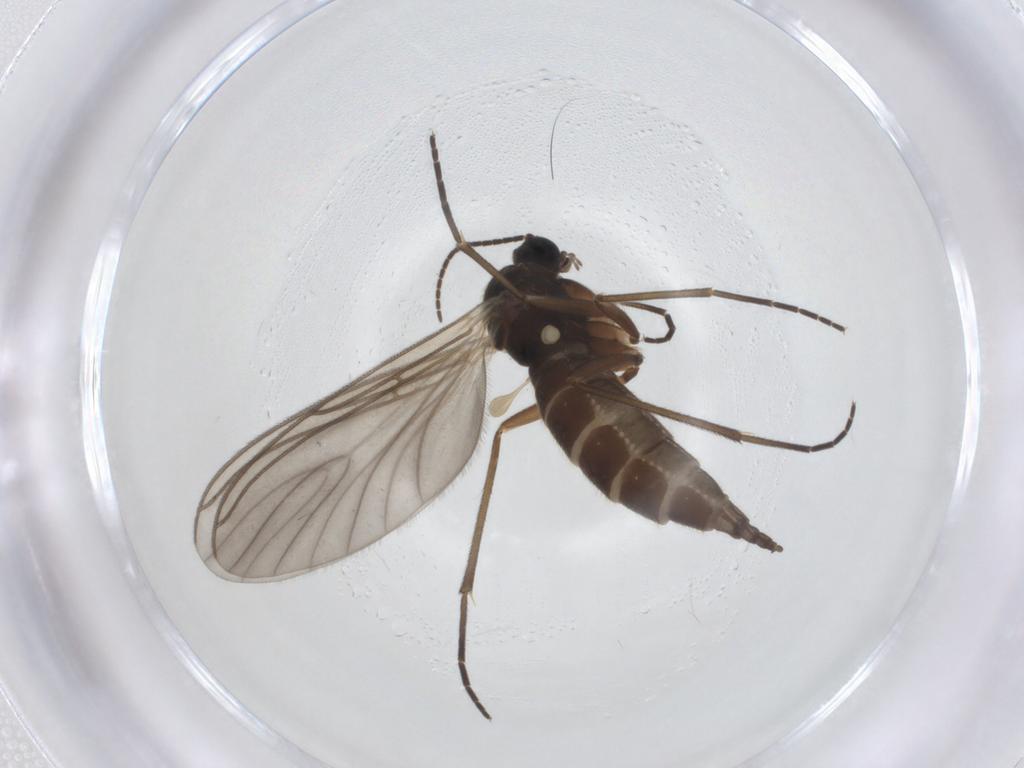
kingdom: Animalia
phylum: Arthropoda
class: Insecta
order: Diptera
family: Sciaridae
